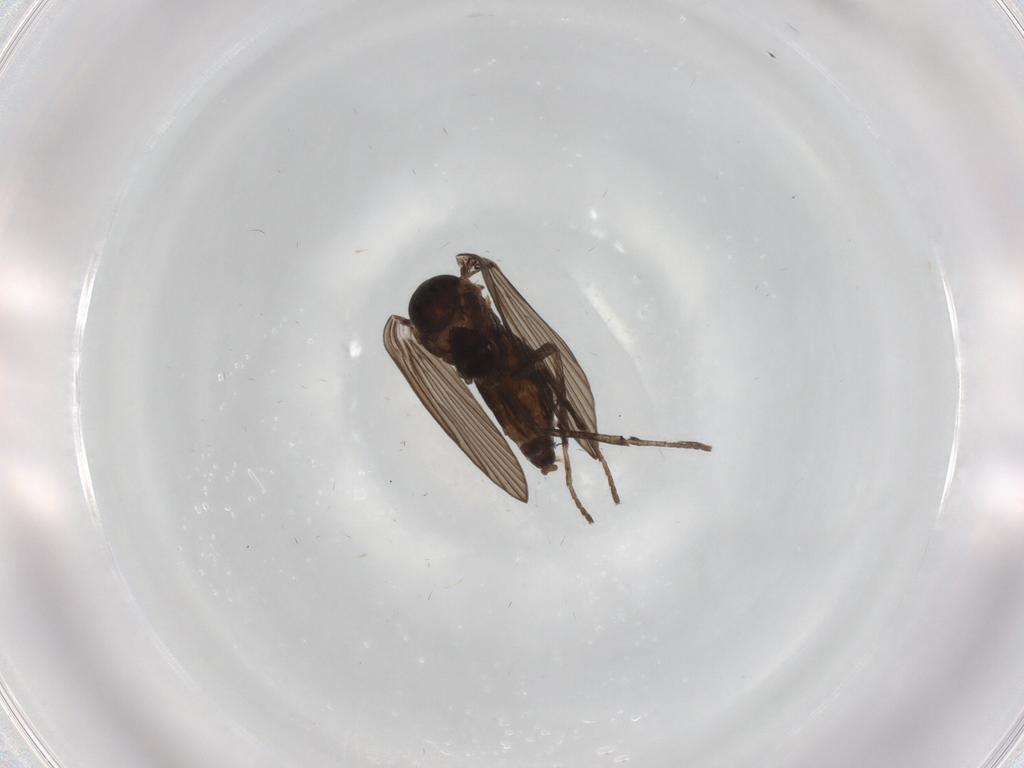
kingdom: Animalia
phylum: Arthropoda
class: Insecta
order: Diptera
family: Psychodidae
